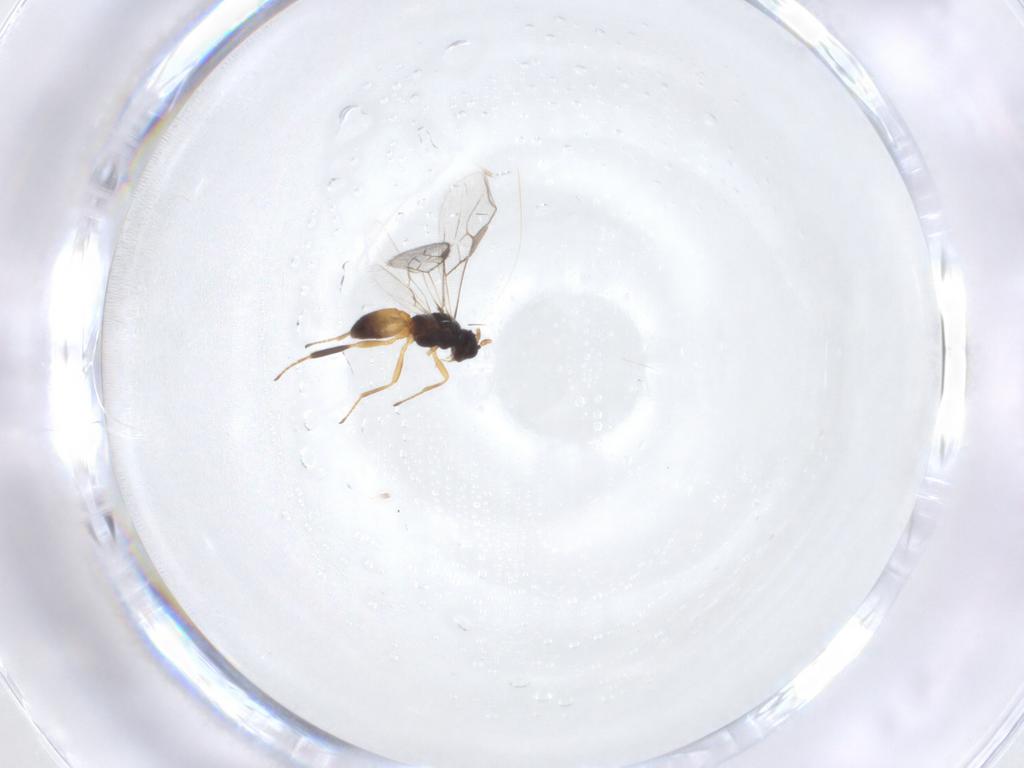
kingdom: Animalia
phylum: Arthropoda
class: Insecta
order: Hymenoptera
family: Braconidae
